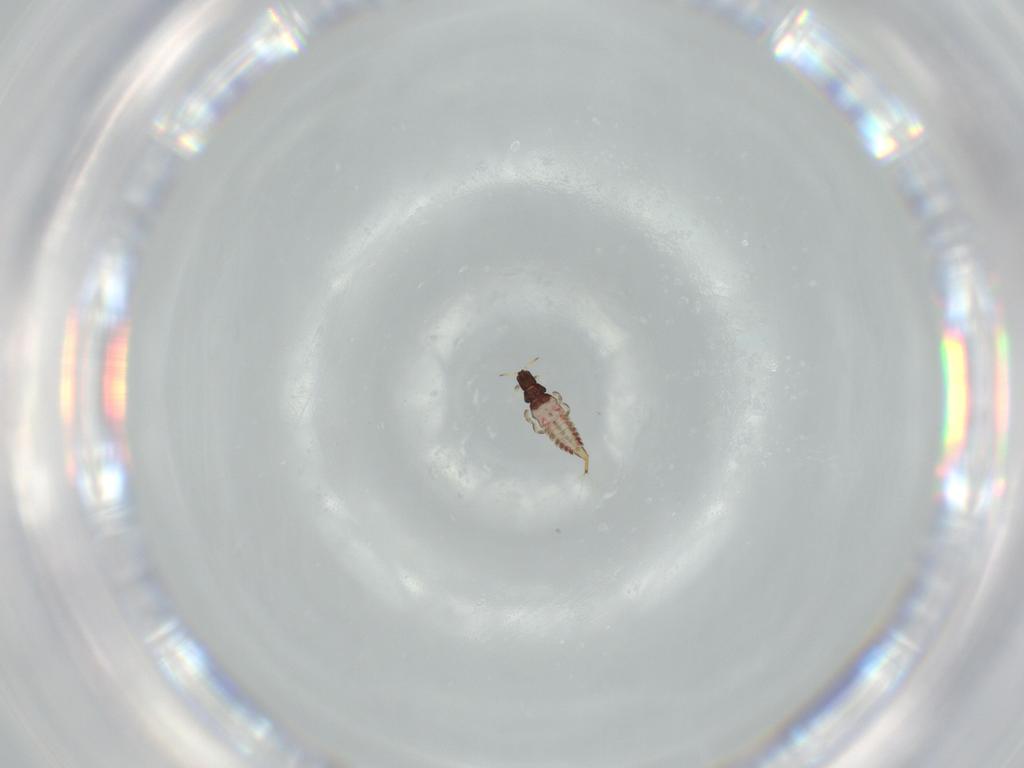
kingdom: Animalia
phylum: Arthropoda
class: Insecta
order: Thysanoptera
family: Phlaeothripidae
